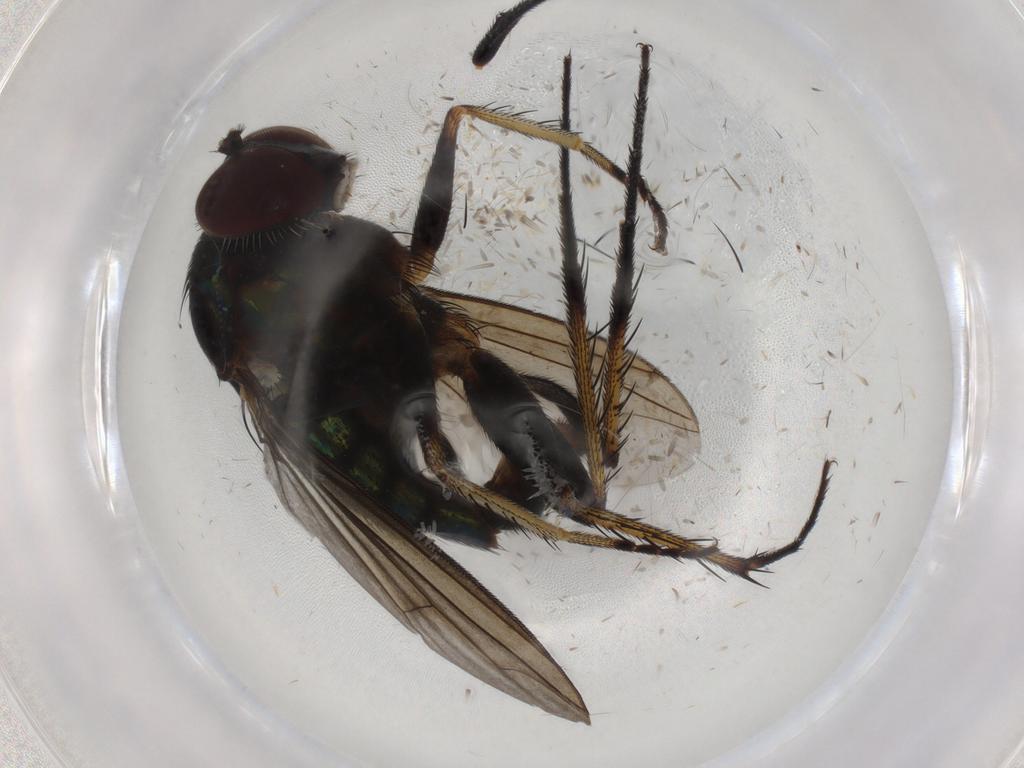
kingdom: Animalia
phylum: Arthropoda
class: Insecta
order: Diptera
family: Dolichopodidae
